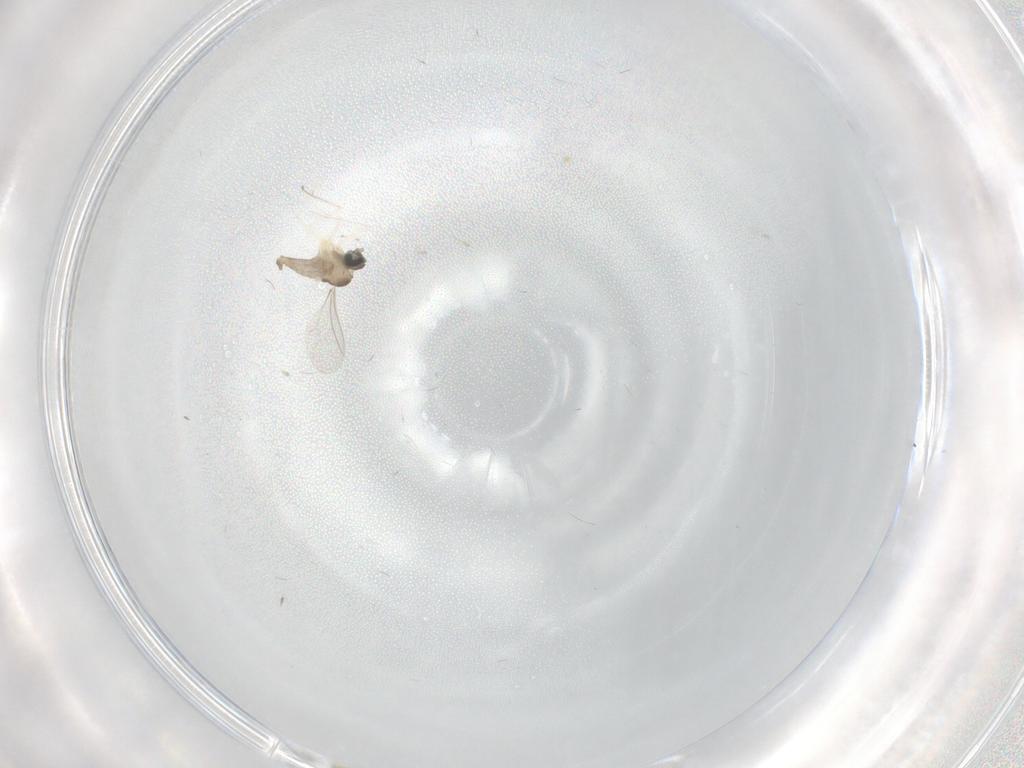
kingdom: Animalia
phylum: Arthropoda
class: Insecta
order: Diptera
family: Cecidomyiidae
